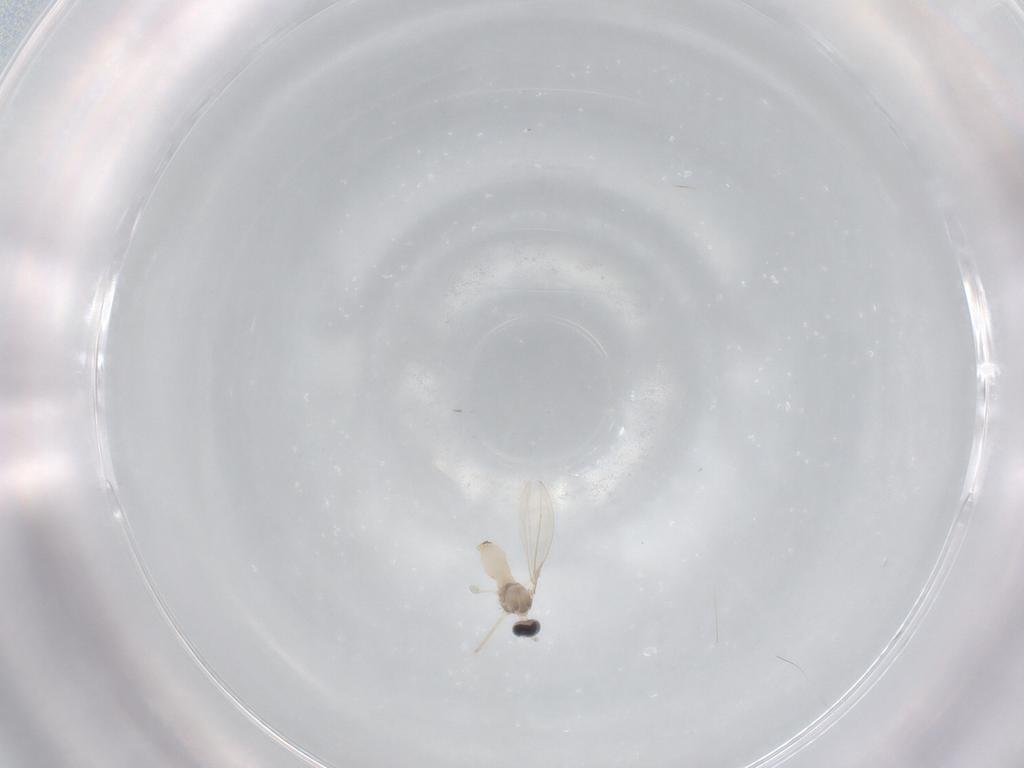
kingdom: Animalia
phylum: Arthropoda
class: Insecta
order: Diptera
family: Cecidomyiidae
